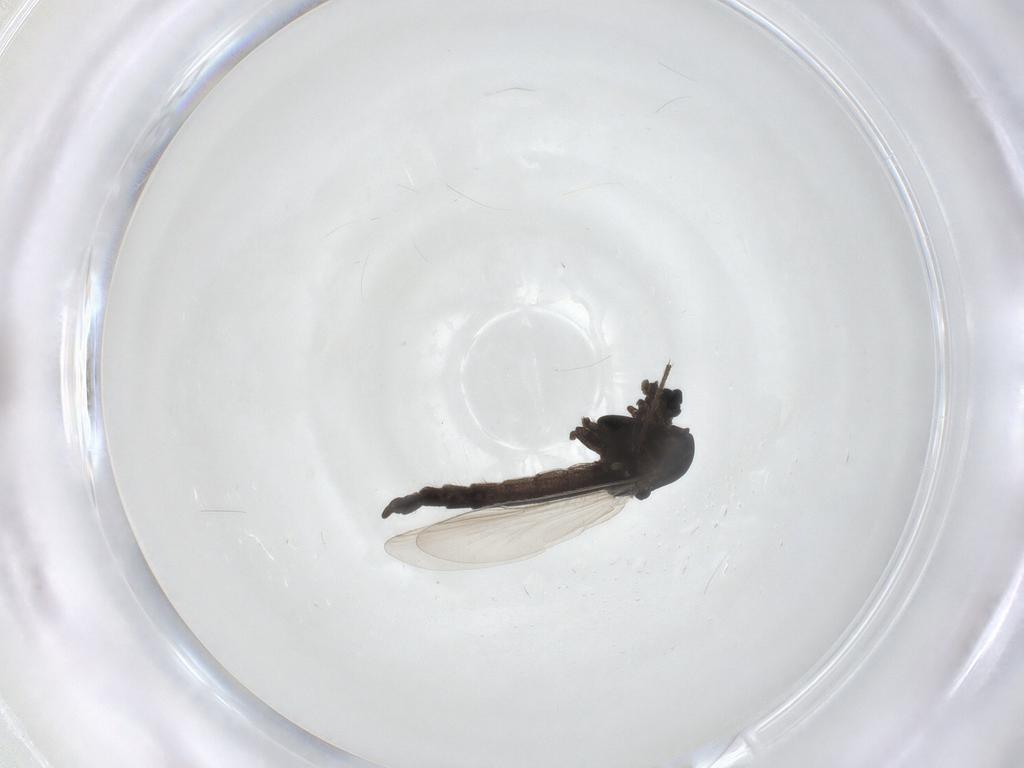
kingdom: Animalia
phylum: Arthropoda
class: Insecta
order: Diptera
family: Chironomidae
